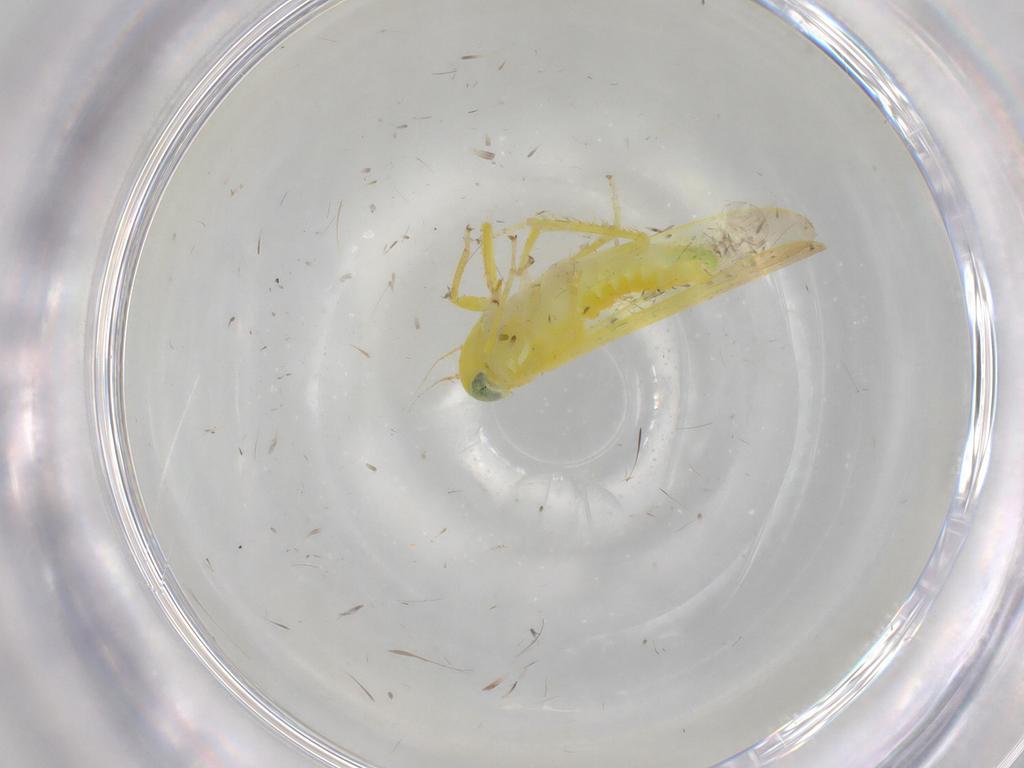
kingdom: Animalia
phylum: Arthropoda
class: Insecta
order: Hemiptera
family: Cicadellidae
